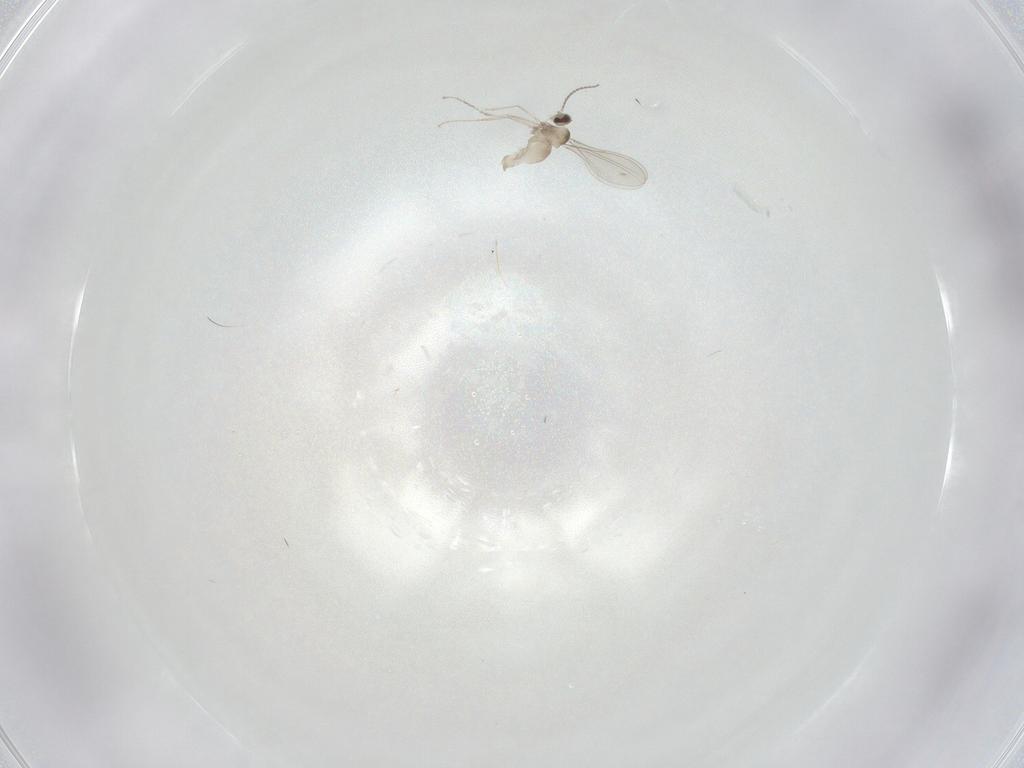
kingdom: Animalia
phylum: Arthropoda
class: Insecta
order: Diptera
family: Cecidomyiidae
